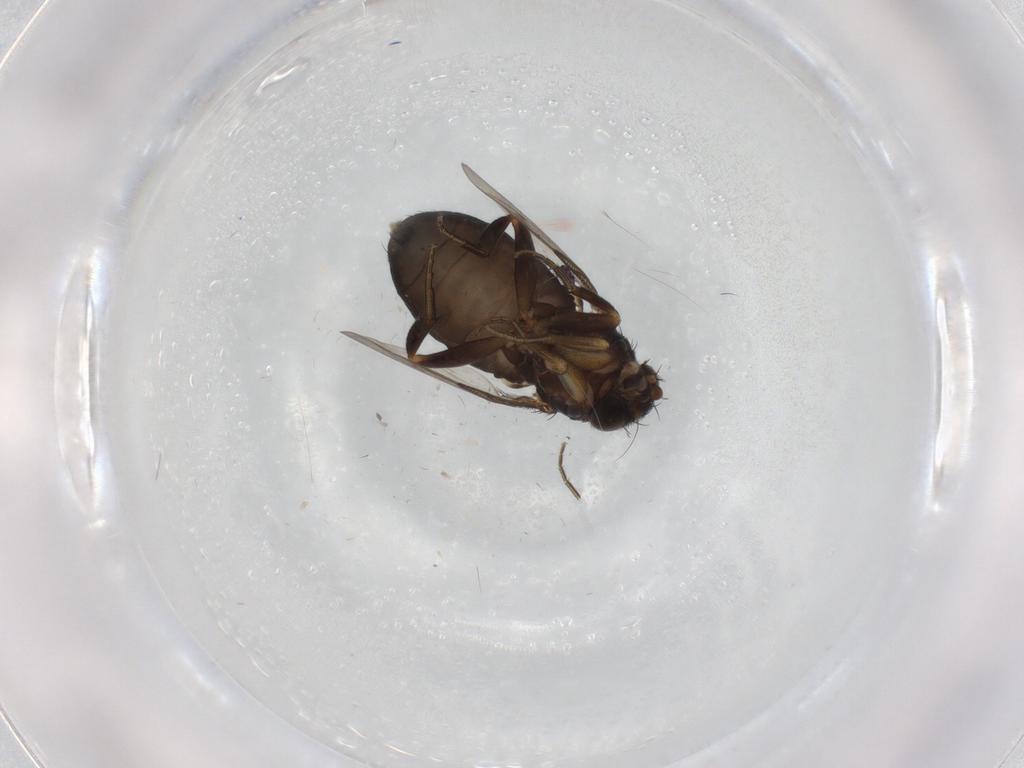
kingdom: Animalia
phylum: Arthropoda
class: Insecta
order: Diptera
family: Phoridae
